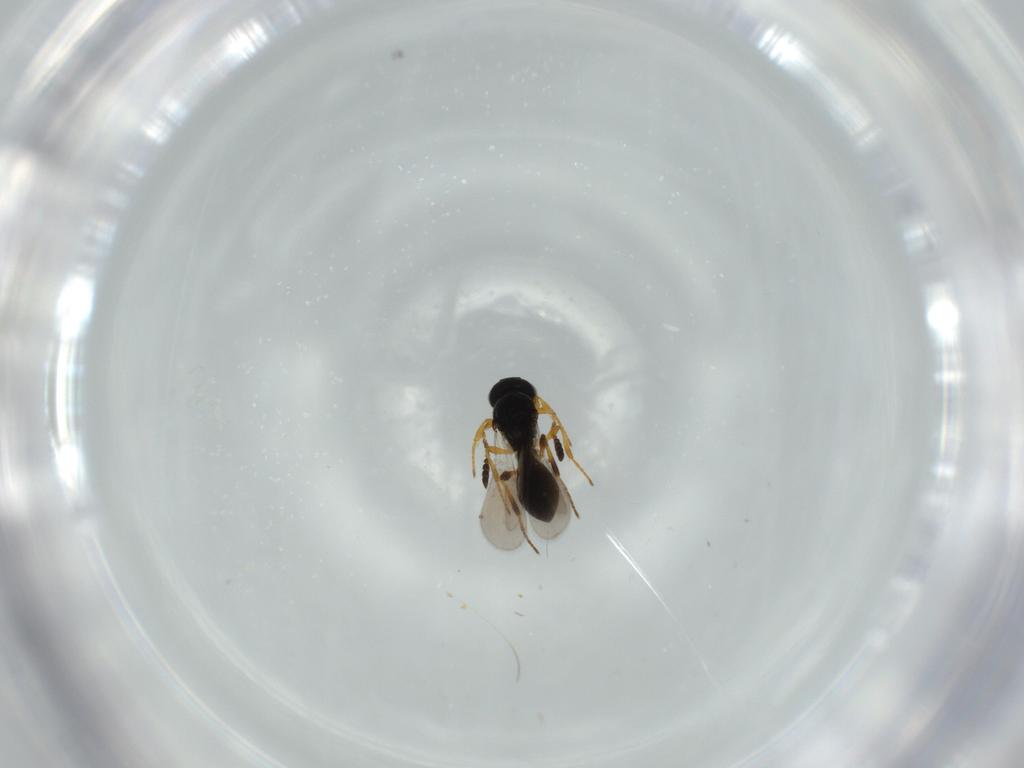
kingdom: Animalia
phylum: Arthropoda
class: Insecta
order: Hymenoptera
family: Platygastridae
